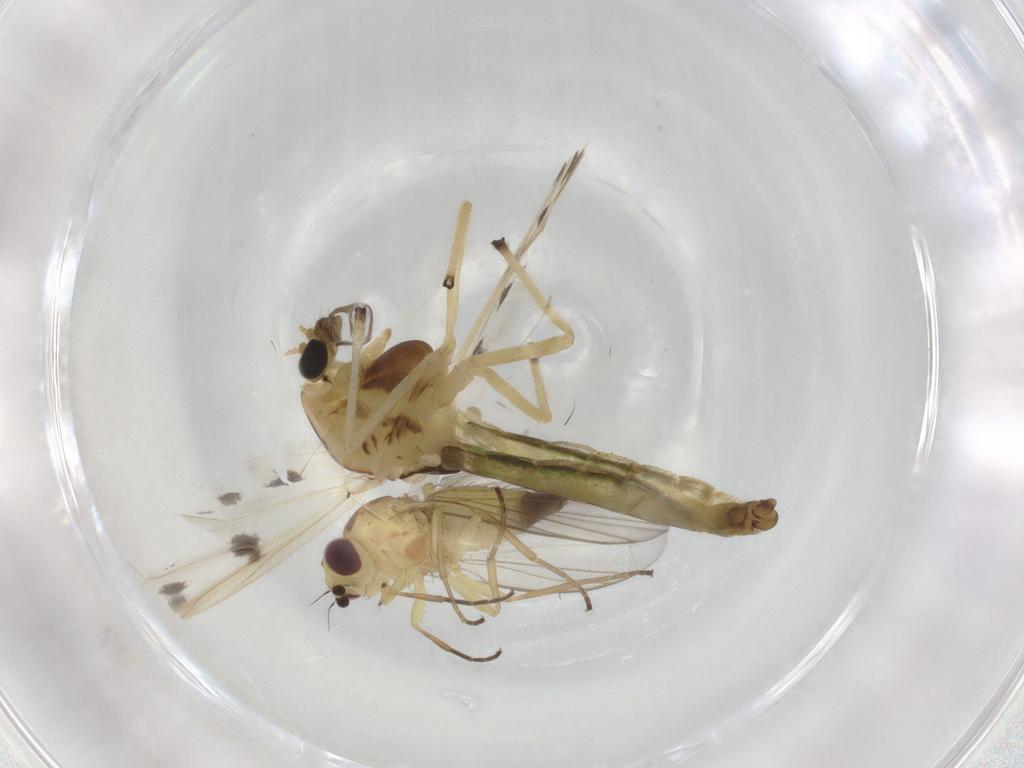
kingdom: Animalia
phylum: Arthropoda
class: Insecta
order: Diptera
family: Chironomidae
